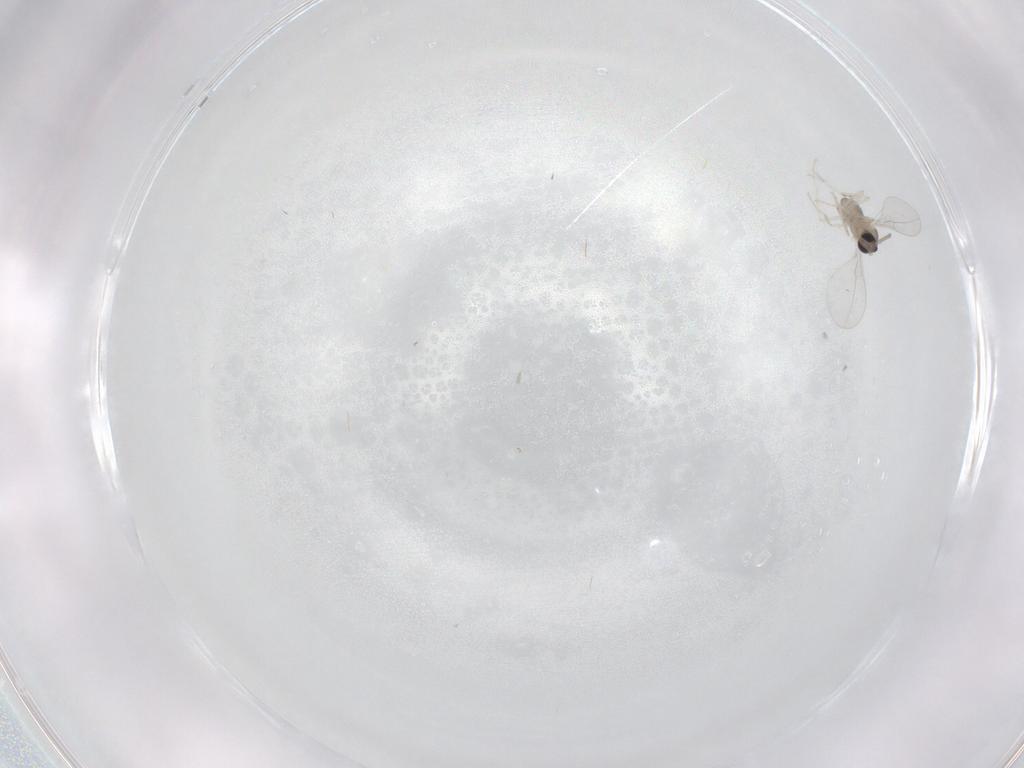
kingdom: Animalia
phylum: Arthropoda
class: Insecta
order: Diptera
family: Cecidomyiidae
